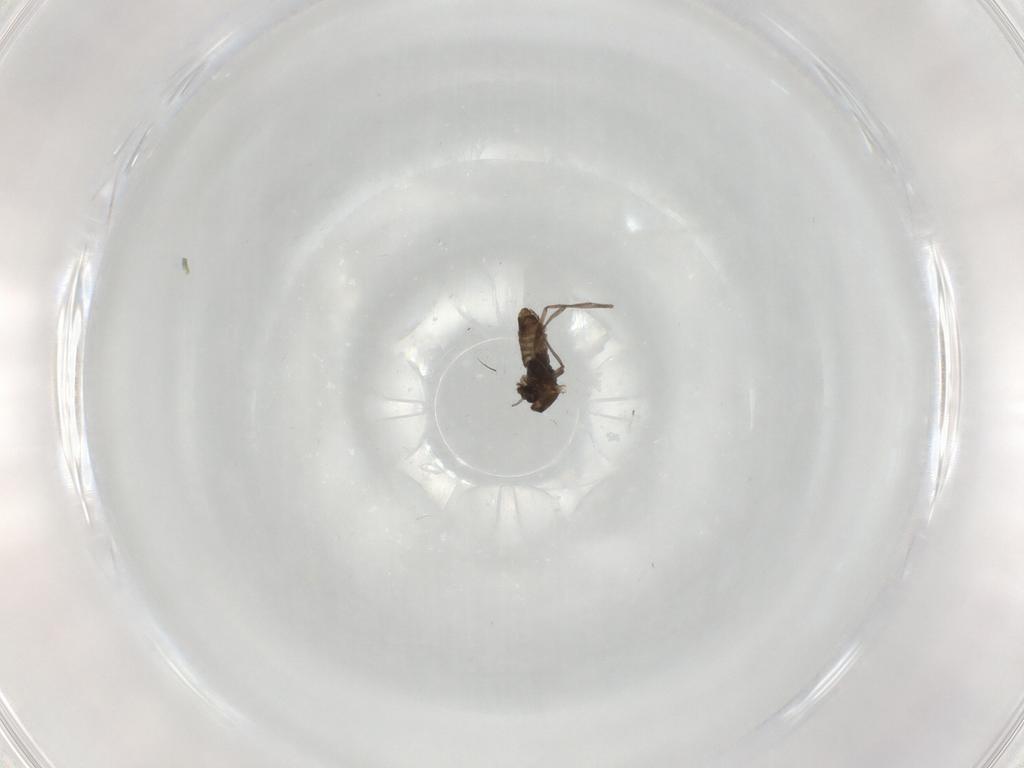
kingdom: Animalia
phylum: Arthropoda
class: Insecta
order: Diptera
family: Chironomidae
